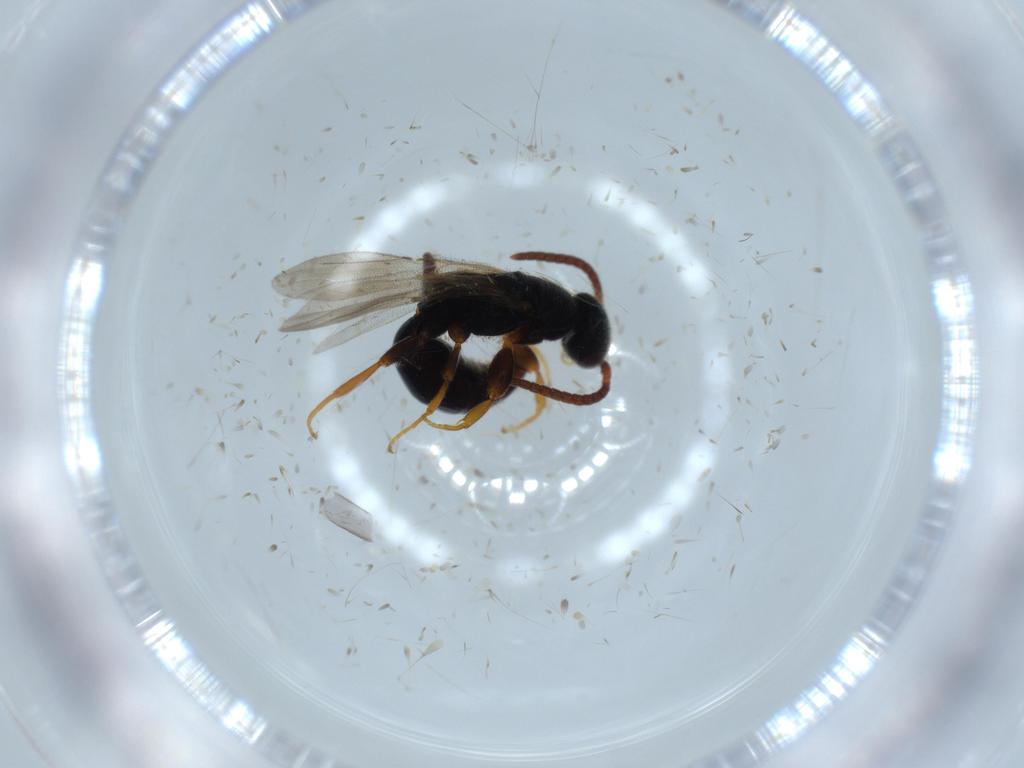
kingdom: Animalia
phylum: Arthropoda
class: Insecta
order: Hymenoptera
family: Bethylidae
